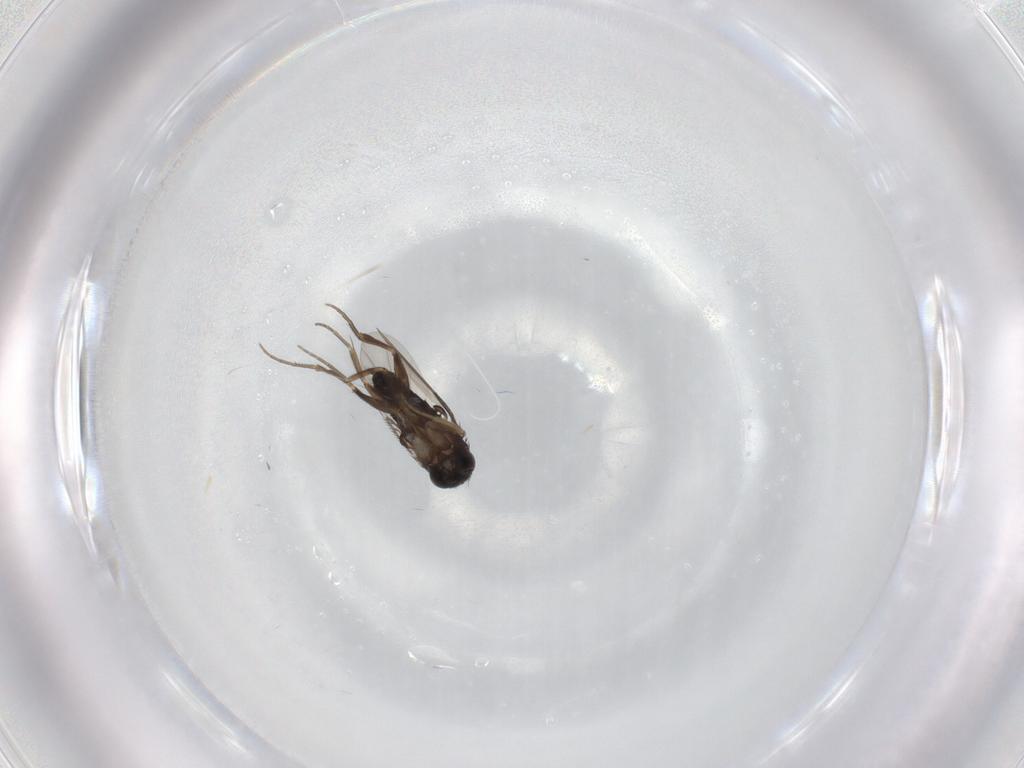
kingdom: Animalia
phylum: Arthropoda
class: Insecta
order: Diptera
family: Phoridae
